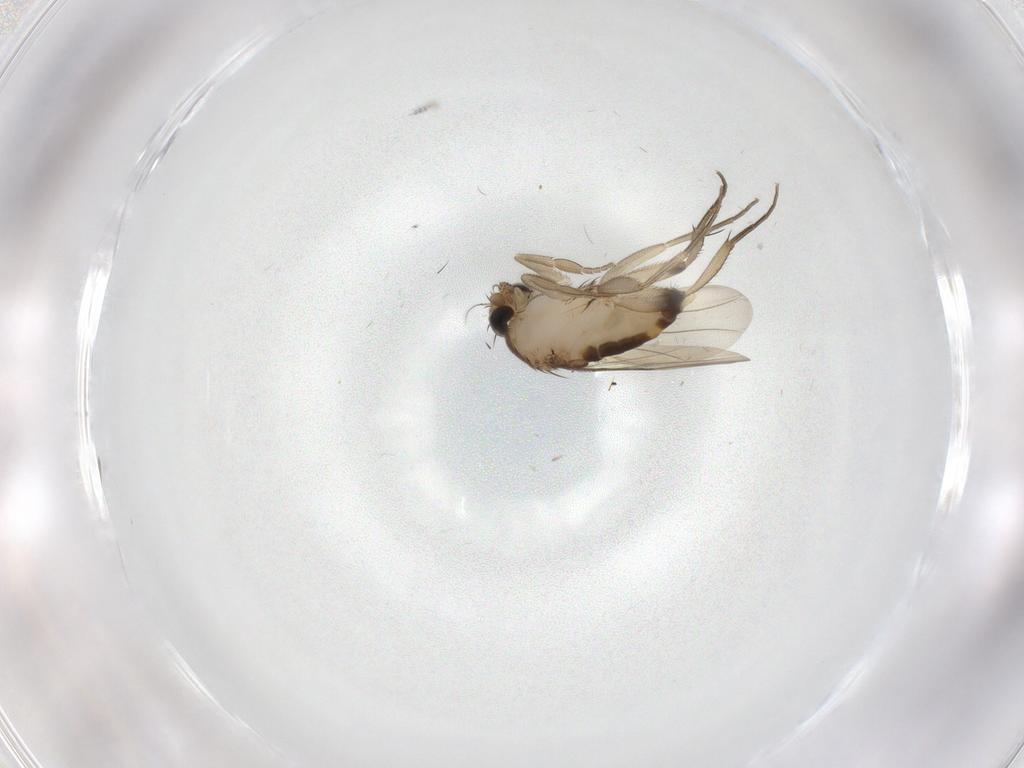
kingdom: Animalia
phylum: Arthropoda
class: Insecta
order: Diptera
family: Phoridae
